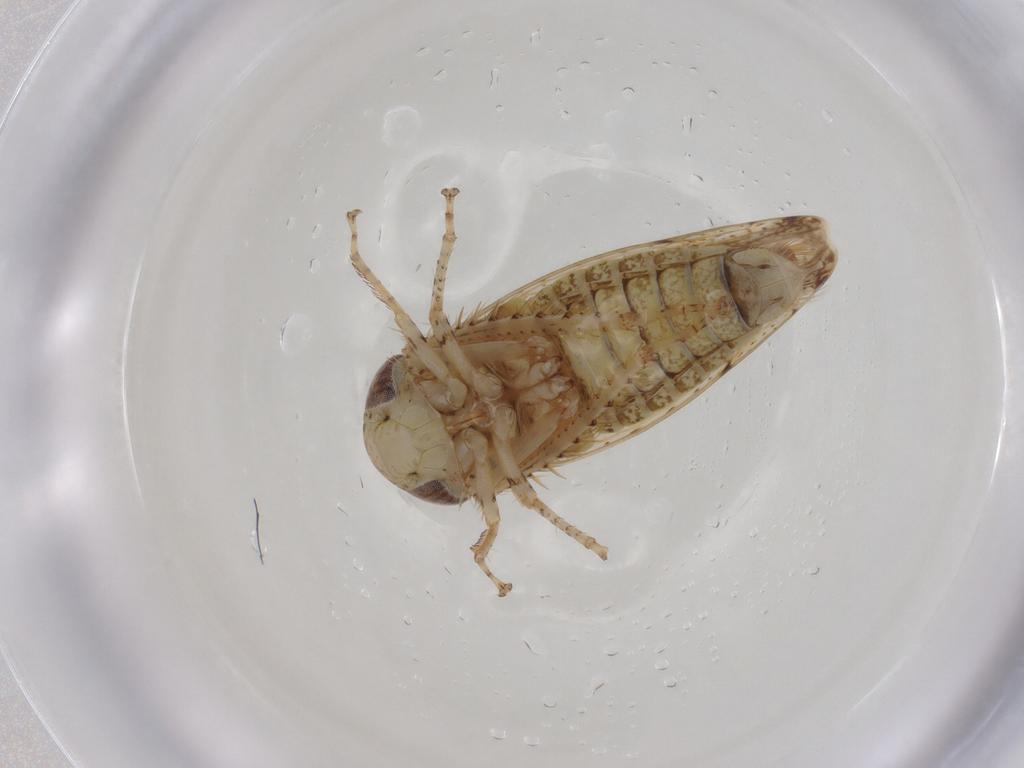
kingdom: Animalia
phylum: Arthropoda
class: Insecta
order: Hemiptera
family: Cicadellidae
